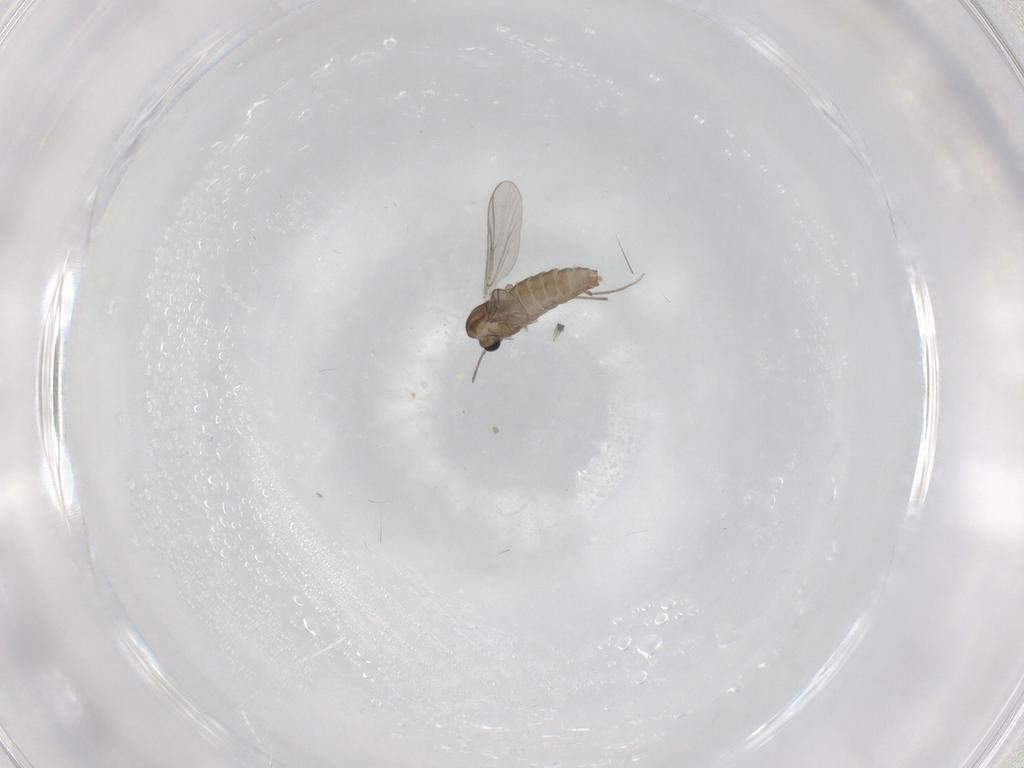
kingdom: Animalia
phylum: Arthropoda
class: Insecta
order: Diptera
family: Chironomidae
